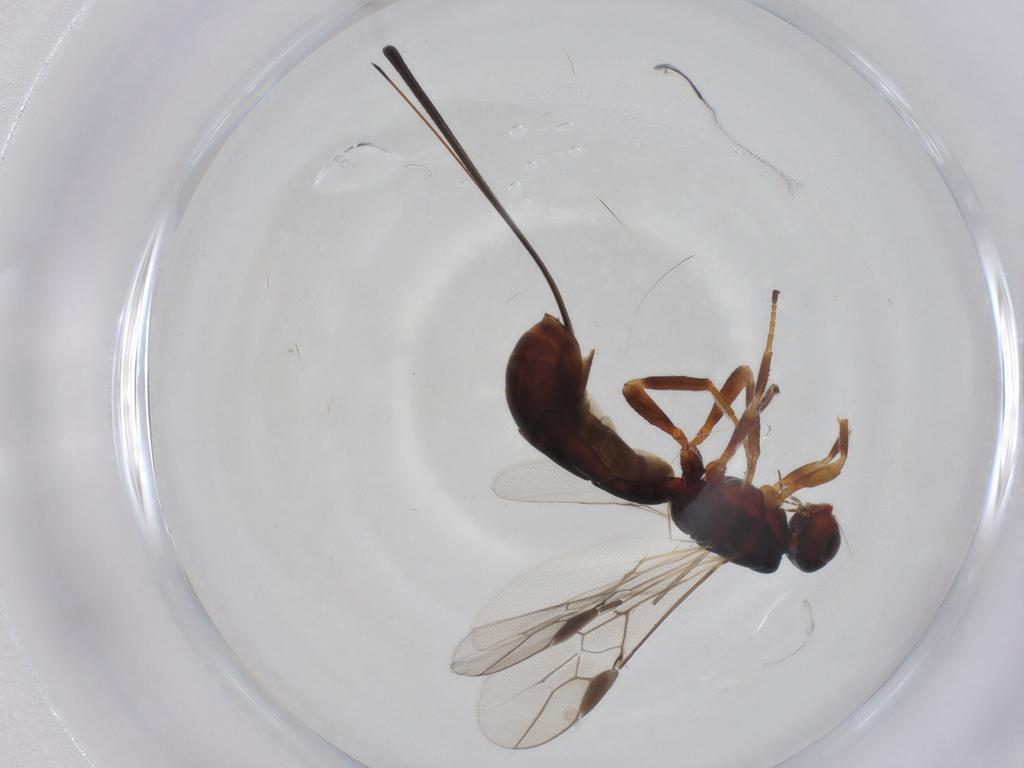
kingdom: Animalia
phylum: Arthropoda
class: Insecta
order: Hymenoptera
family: Braconidae
